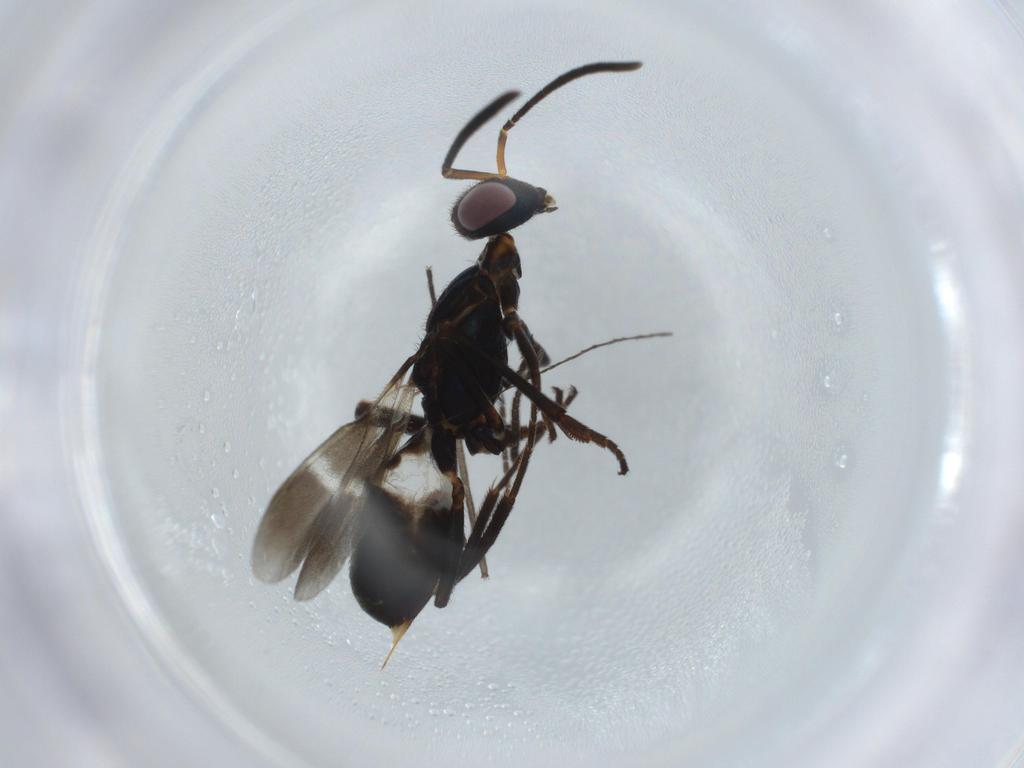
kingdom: Animalia
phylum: Arthropoda
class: Insecta
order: Hymenoptera
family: Eupelmidae
